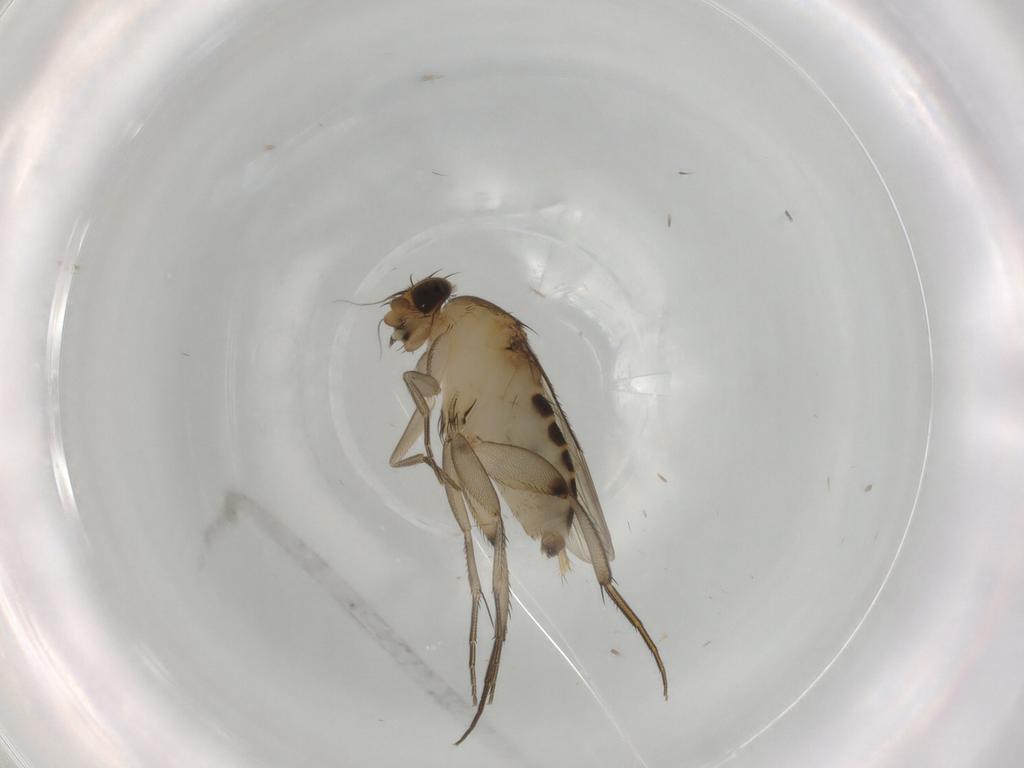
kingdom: Animalia
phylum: Arthropoda
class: Insecta
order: Diptera
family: Phoridae
